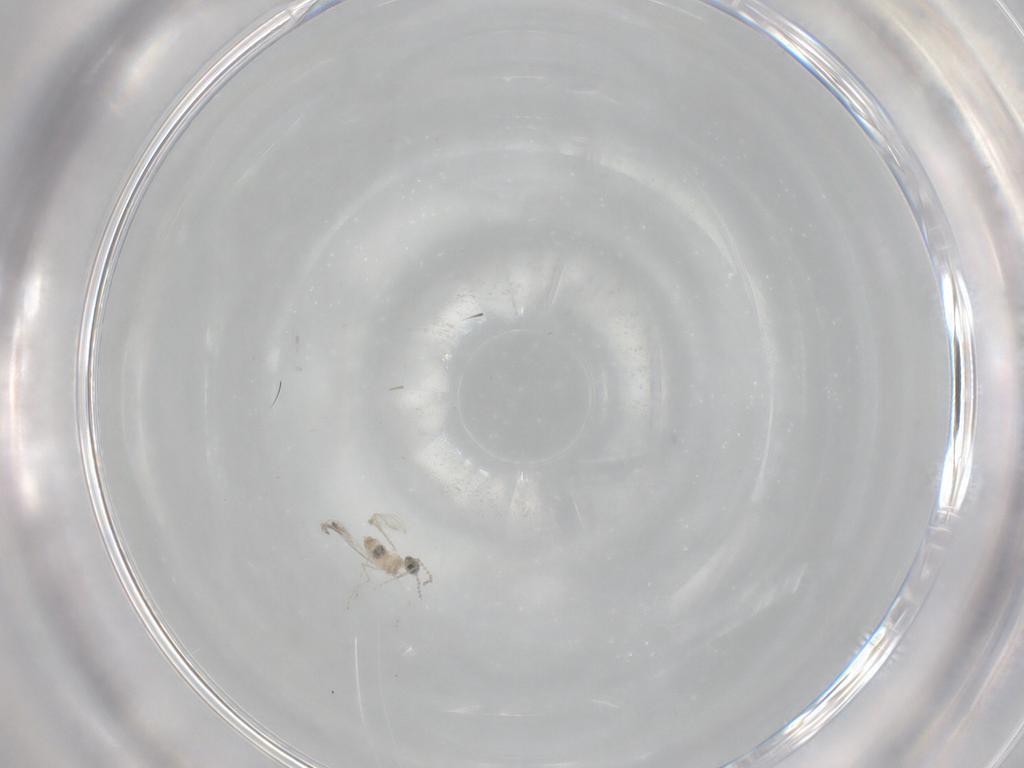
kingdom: Animalia
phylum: Arthropoda
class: Insecta
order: Diptera
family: Cecidomyiidae
